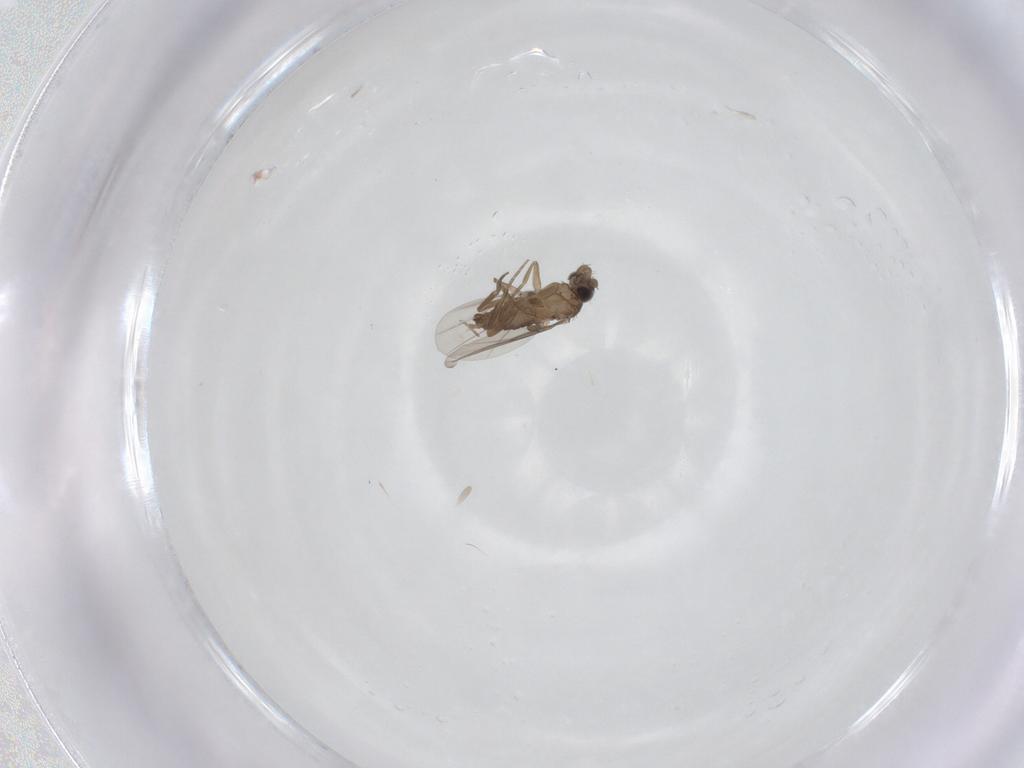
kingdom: Animalia
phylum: Arthropoda
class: Insecta
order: Diptera
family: Phoridae
